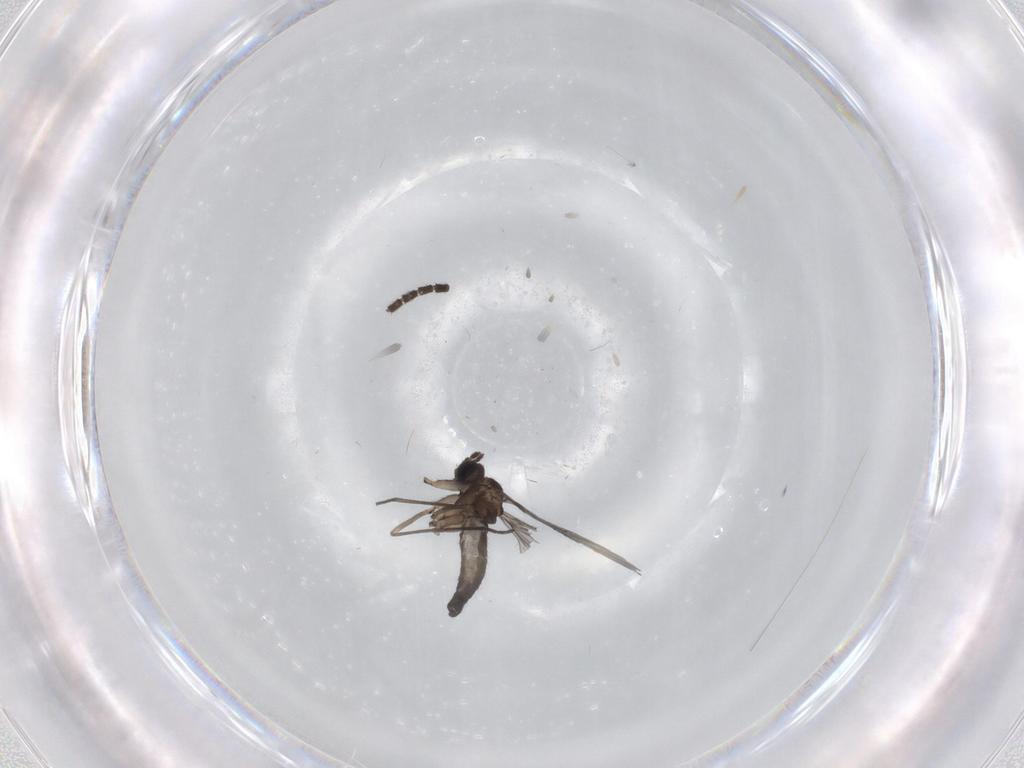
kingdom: Animalia
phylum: Arthropoda
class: Insecta
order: Diptera
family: Sciaridae
